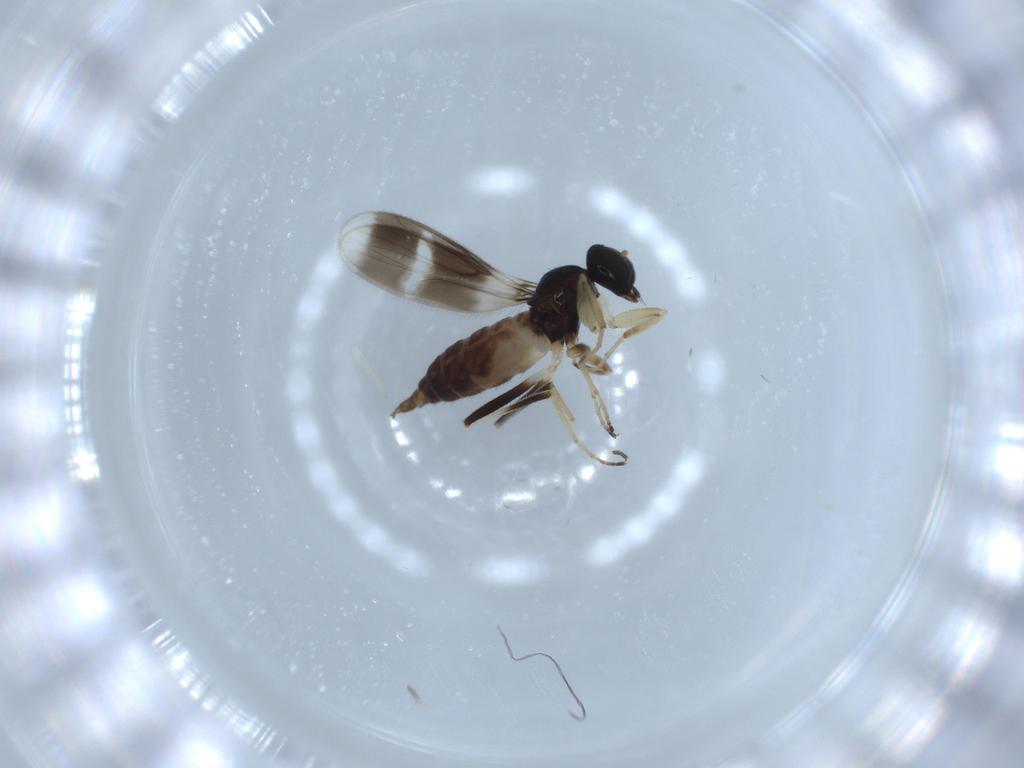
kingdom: Animalia
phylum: Arthropoda
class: Insecta
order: Diptera
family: Hybotidae
